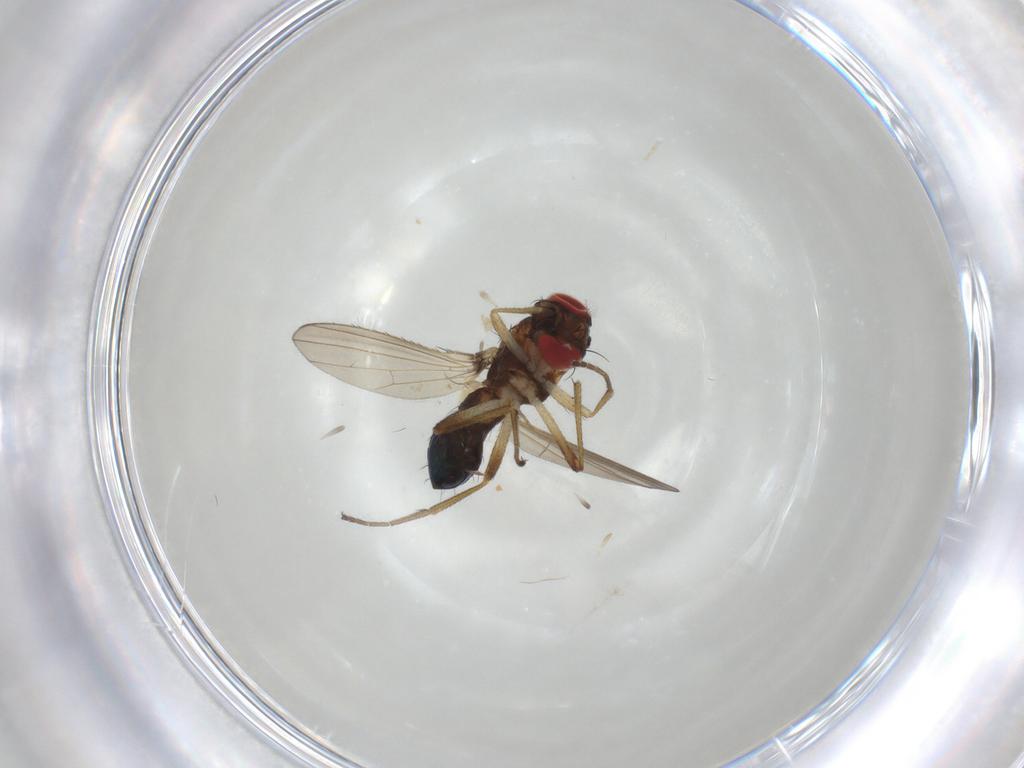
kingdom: Animalia
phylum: Arthropoda
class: Insecta
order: Diptera
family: Drosophilidae
